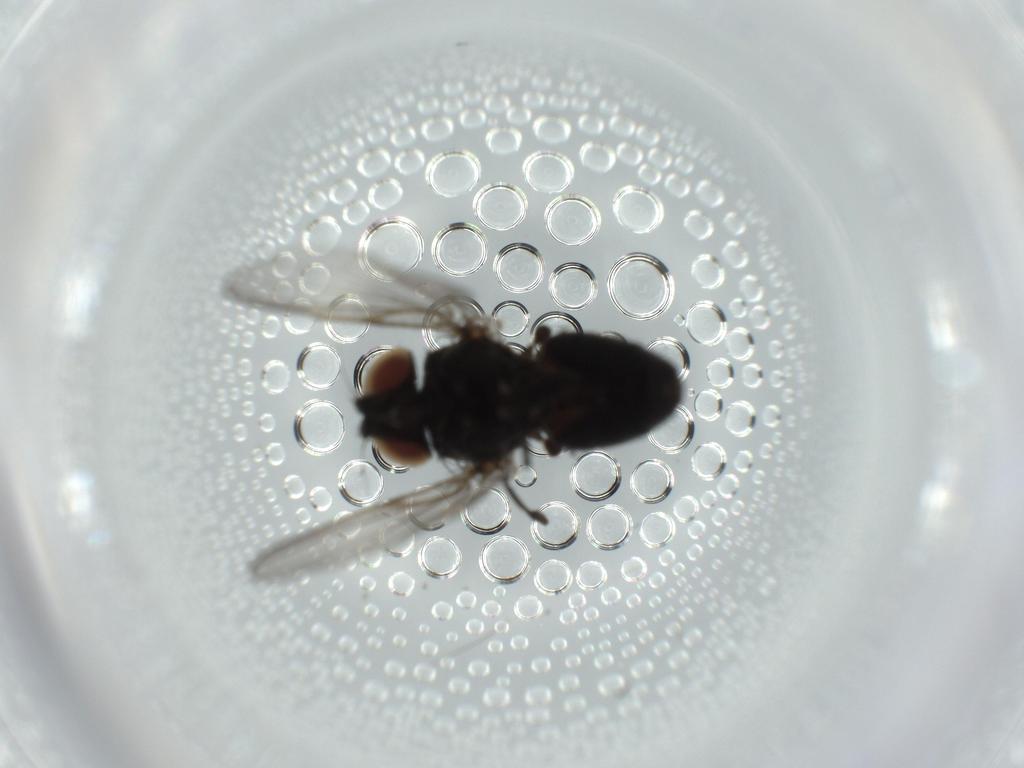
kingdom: Animalia
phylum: Arthropoda
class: Insecta
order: Diptera
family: Milichiidae
